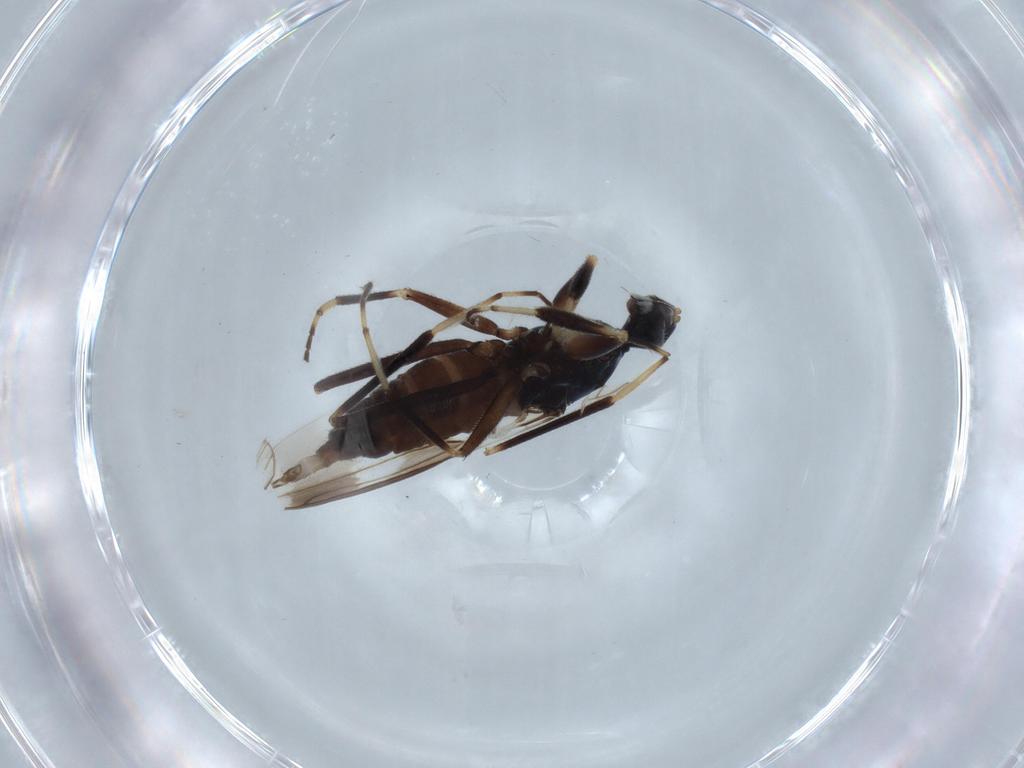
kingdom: Animalia
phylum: Arthropoda
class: Insecta
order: Diptera
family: Hybotidae
